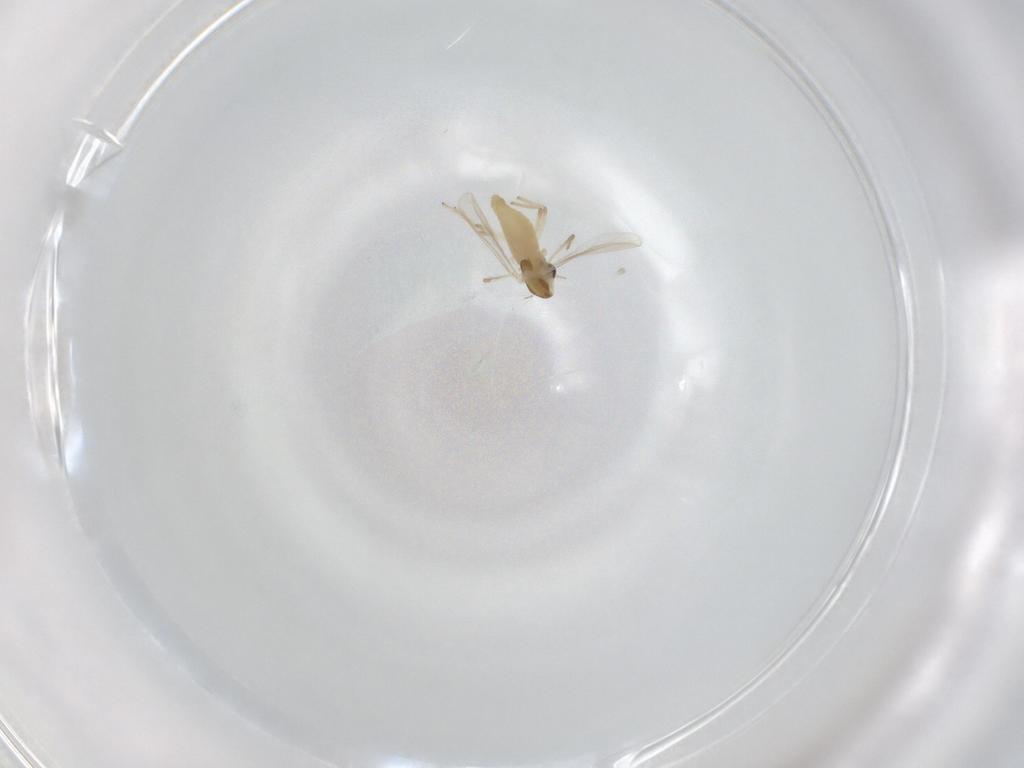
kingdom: Animalia
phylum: Arthropoda
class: Insecta
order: Diptera
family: Chironomidae
